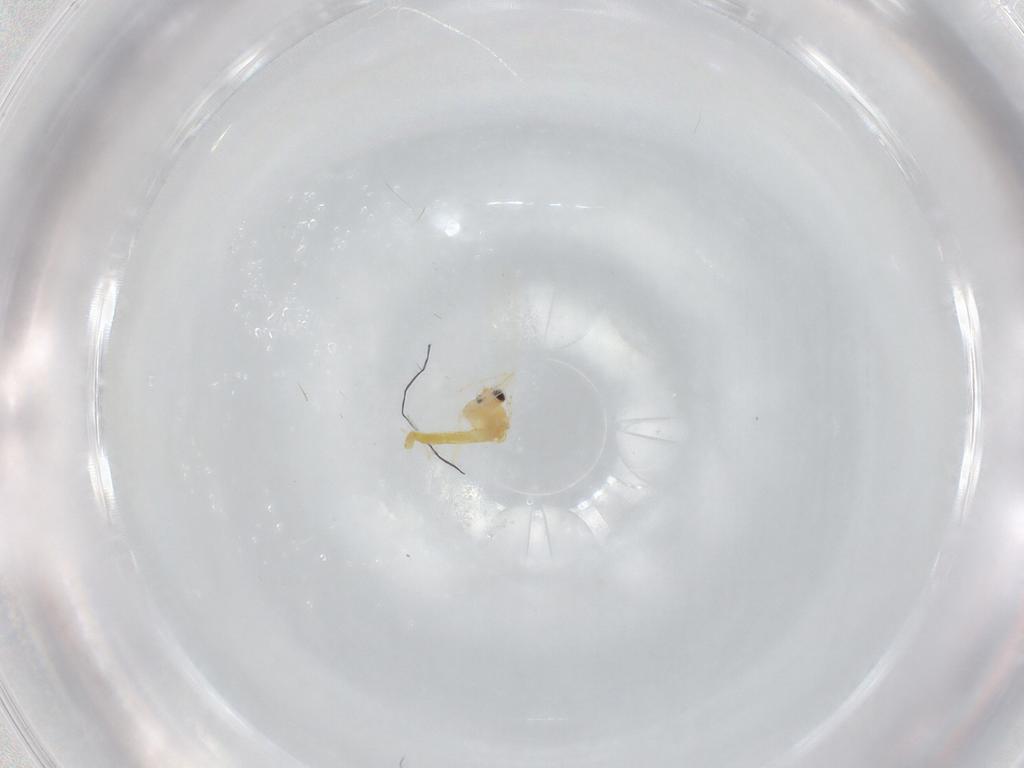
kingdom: Animalia
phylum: Arthropoda
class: Insecta
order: Diptera
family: Chironomidae
